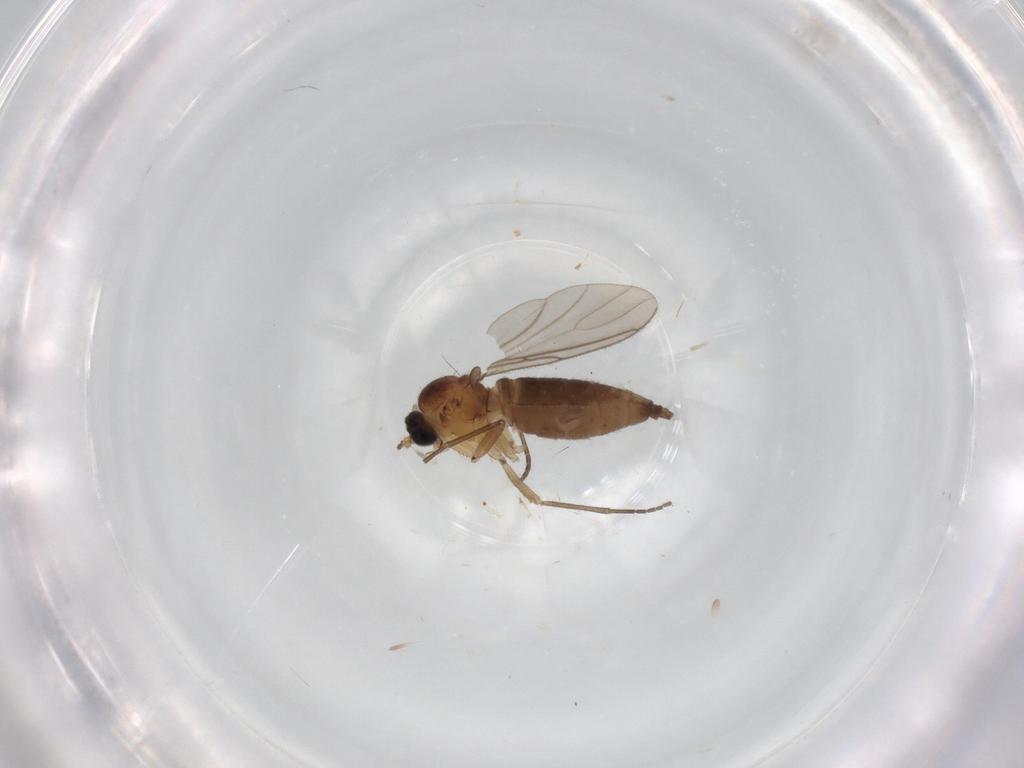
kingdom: Animalia
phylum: Arthropoda
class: Insecta
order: Diptera
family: Sciaridae
